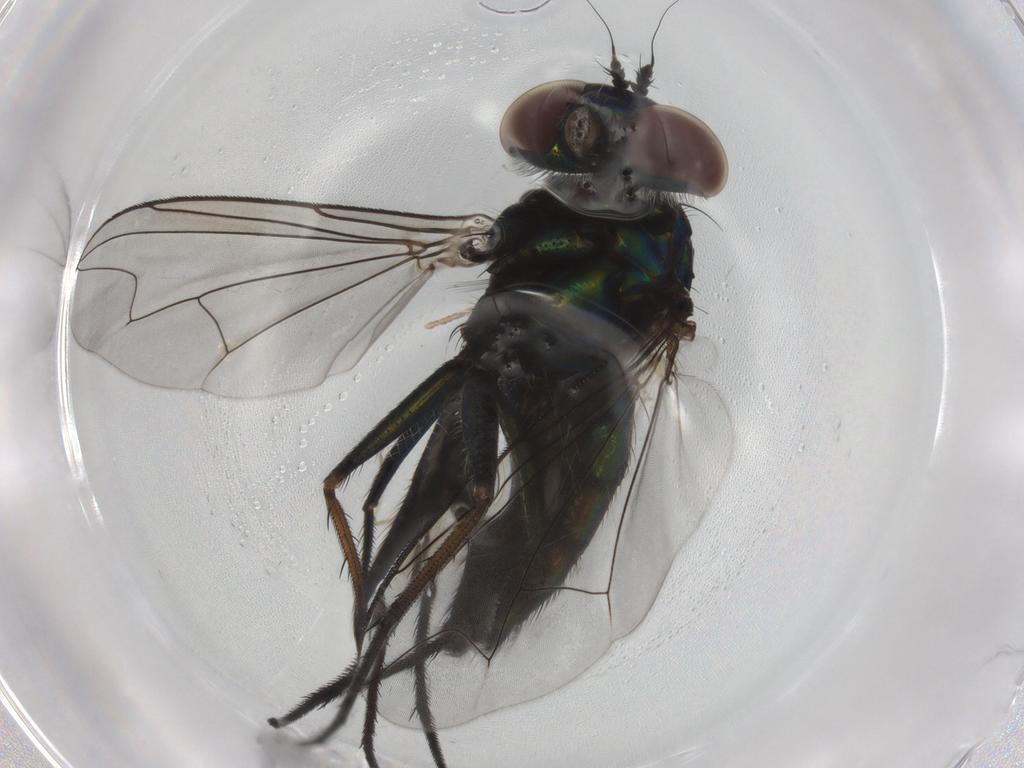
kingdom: Animalia
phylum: Arthropoda
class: Insecta
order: Diptera
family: Dolichopodidae
